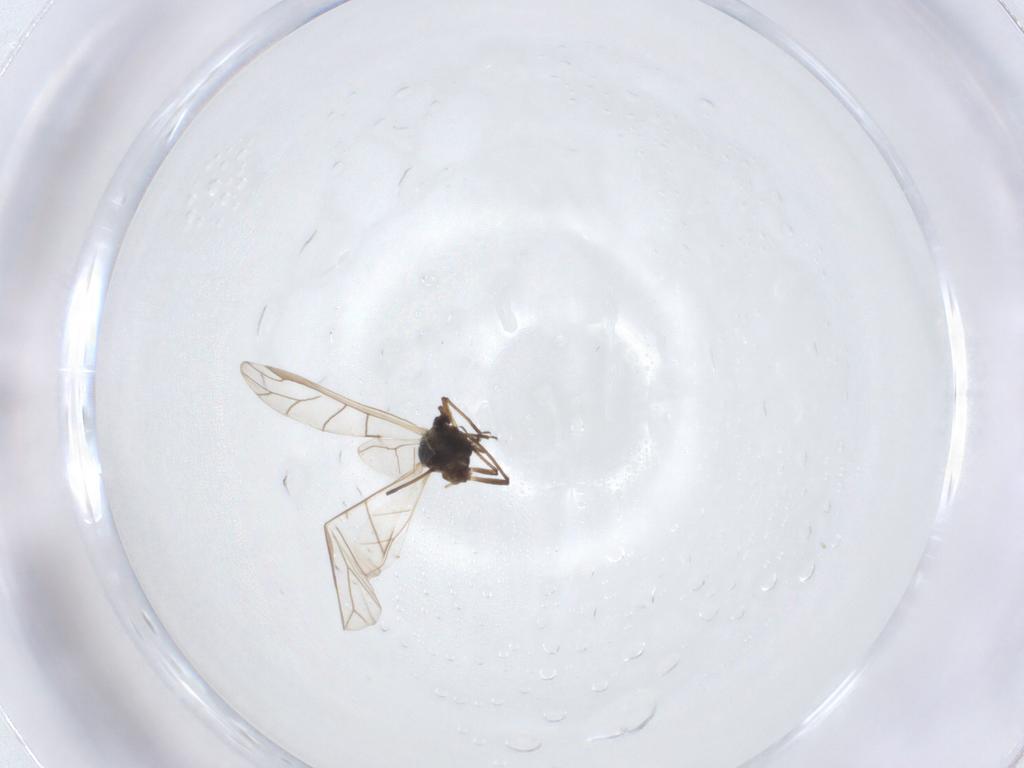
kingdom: Animalia
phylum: Arthropoda
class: Insecta
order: Hemiptera
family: Aphididae
